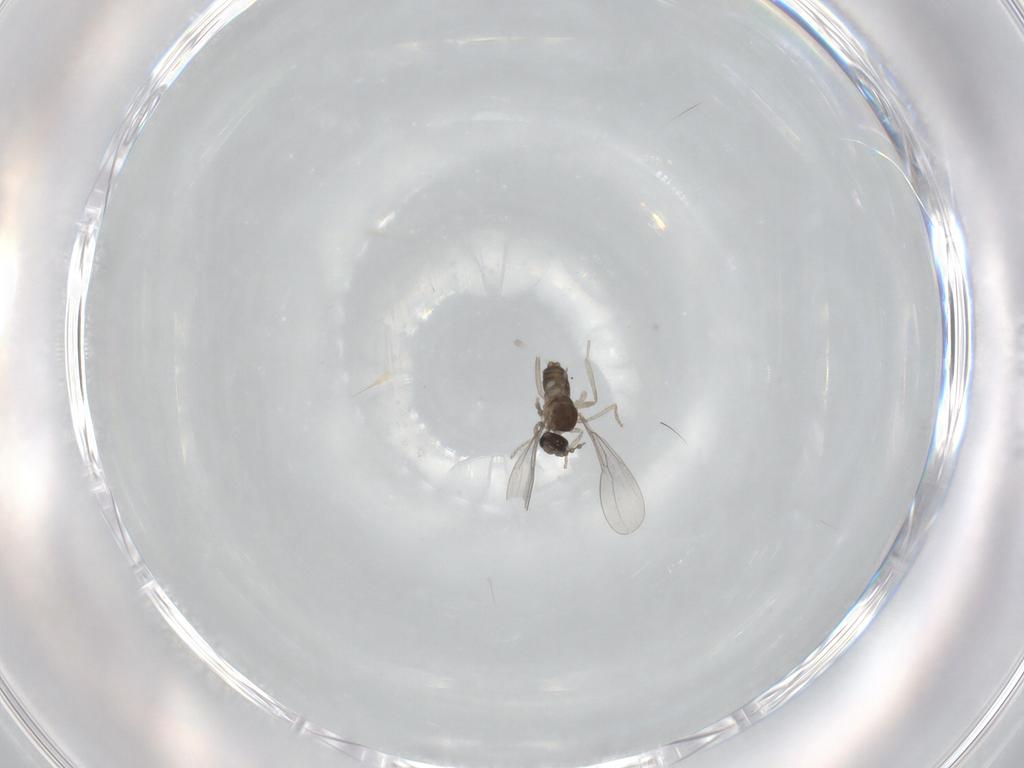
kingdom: Animalia
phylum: Arthropoda
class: Insecta
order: Diptera
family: Cecidomyiidae
